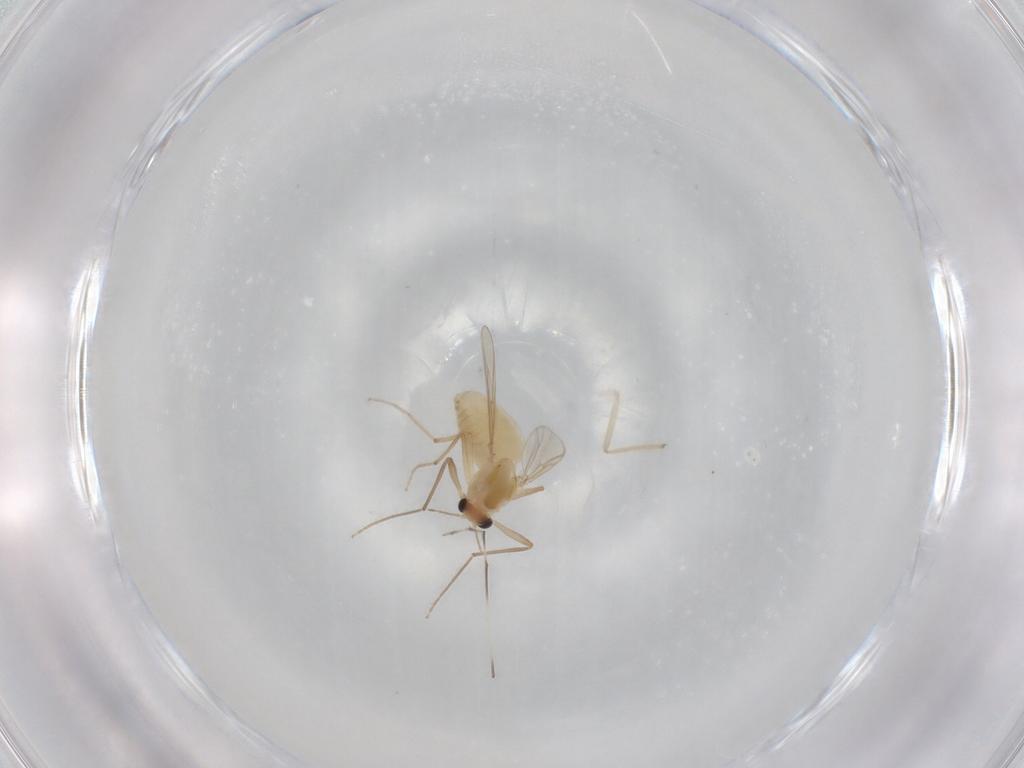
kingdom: Animalia
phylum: Arthropoda
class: Insecta
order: Diptera
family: Chironomidae
